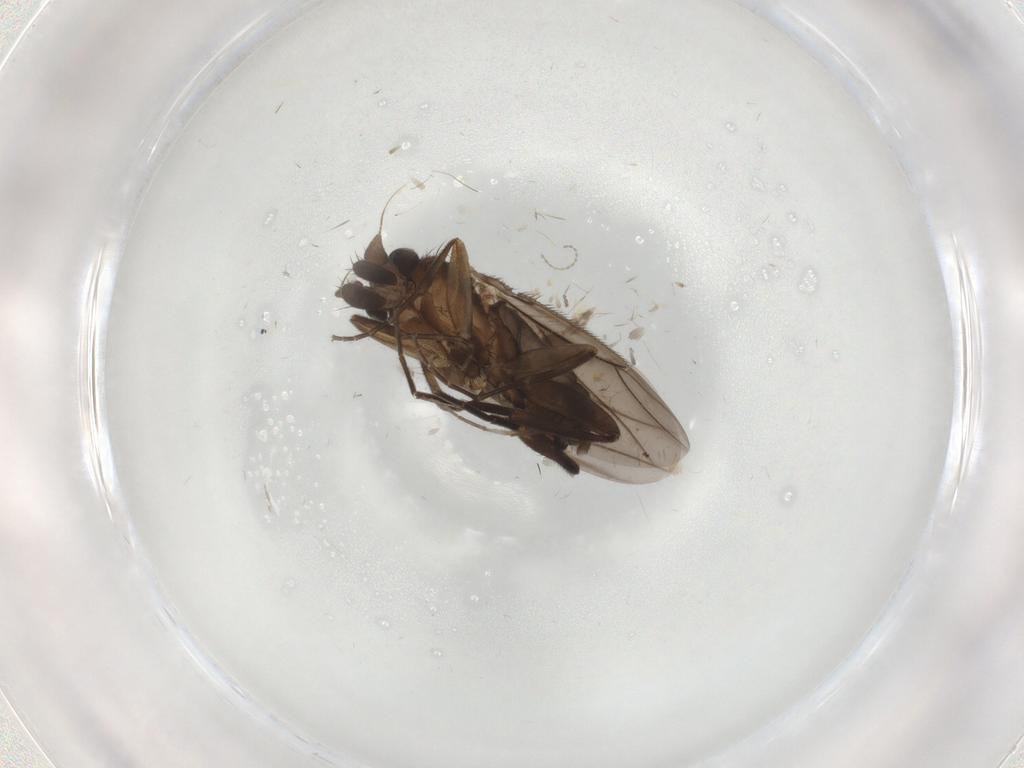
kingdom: Animalia
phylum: Arthropoda
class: Insecta
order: Diptera
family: Phoridae
